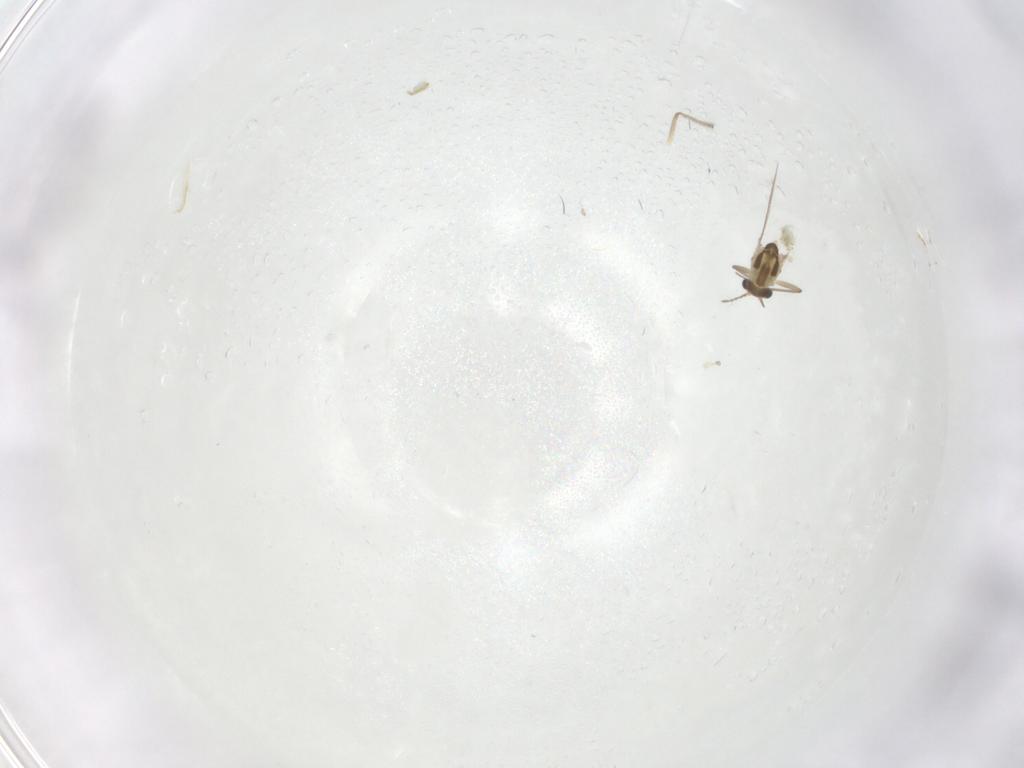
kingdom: Animalia
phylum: Arthropoda
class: Insecta
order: Diptera
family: Chironomidae
